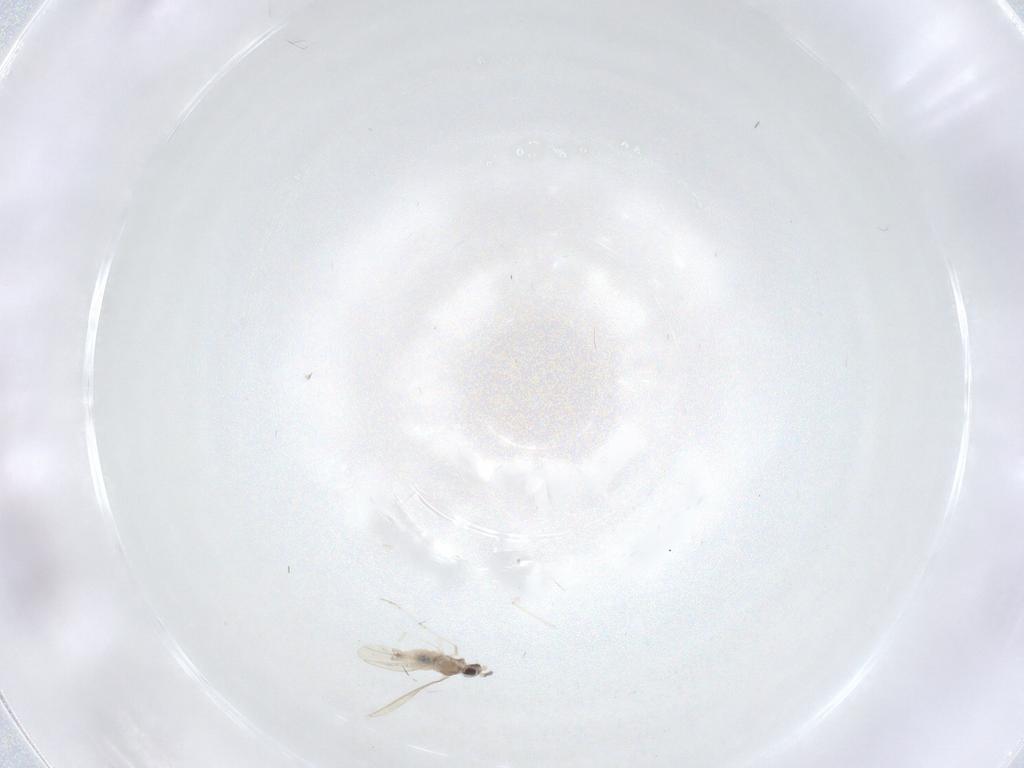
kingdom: Animalia
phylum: Arthropoda
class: Insecta
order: Diptera
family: Cecidomyiidae
